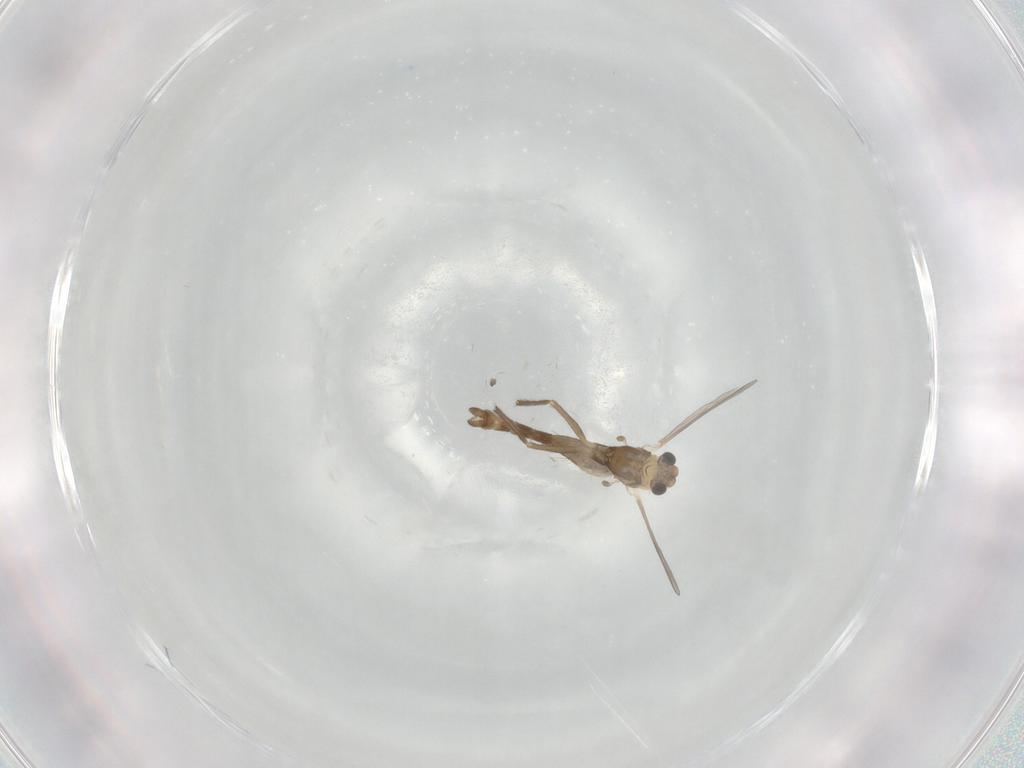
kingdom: Animalia
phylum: Arthropoda
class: Insecta
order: Diptera
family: Chironomidae
